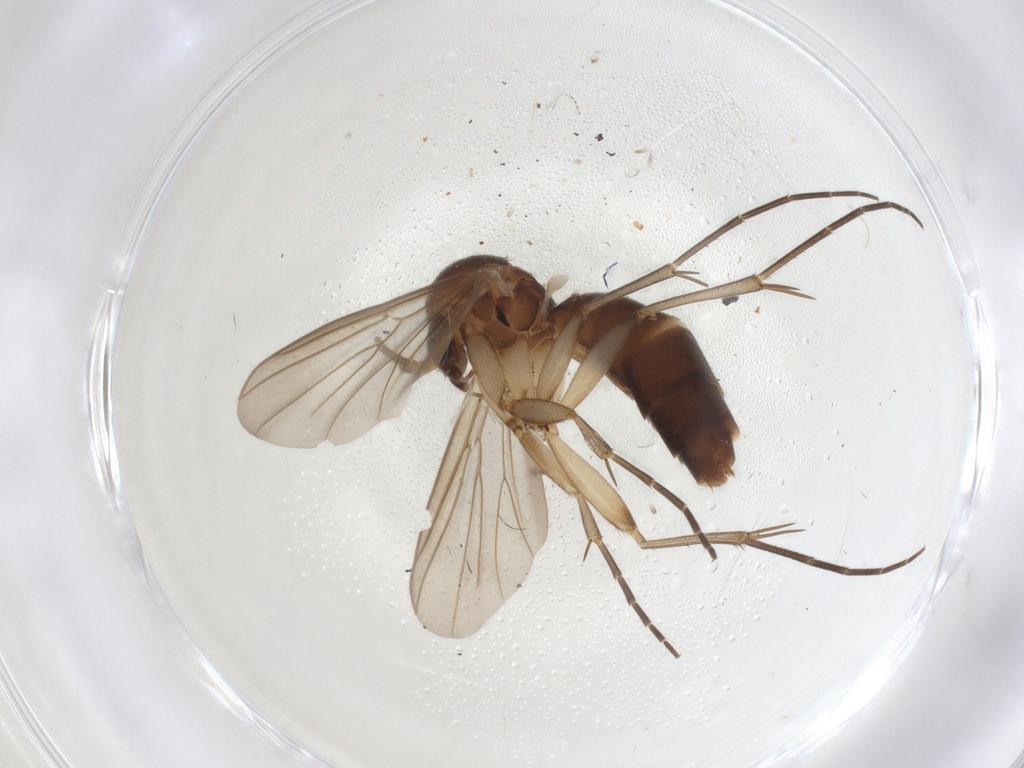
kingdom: Animalia
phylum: Arthropoda
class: Insecta
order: Diptera
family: Mycetophilidae
